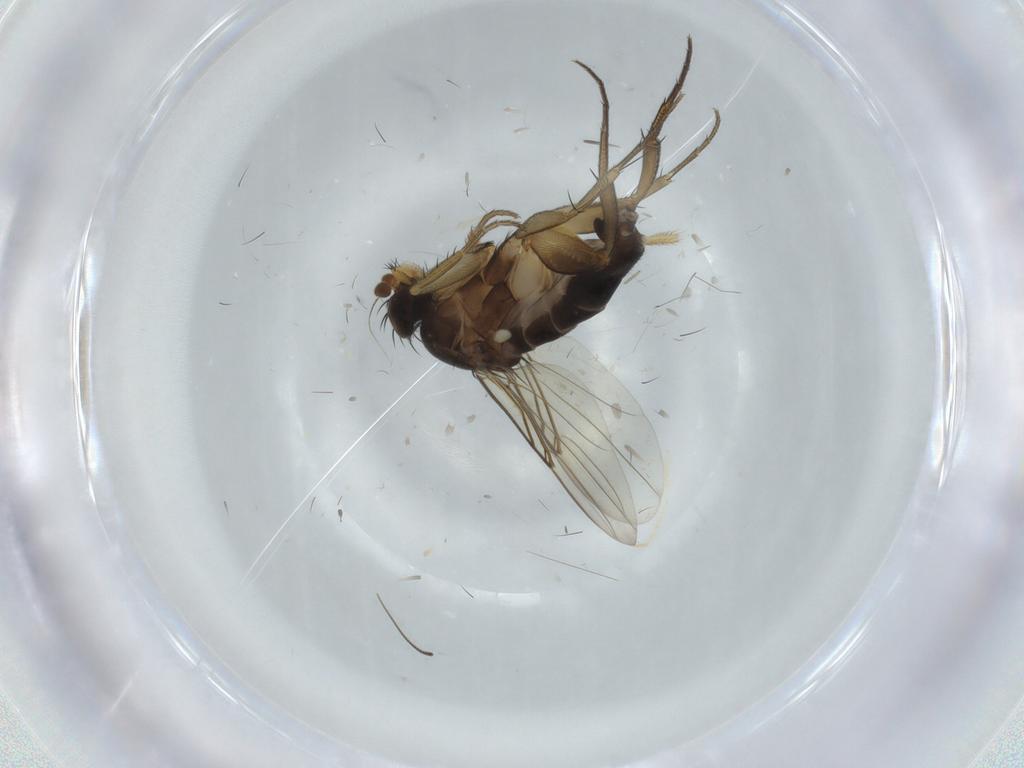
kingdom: Animalia
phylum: Arthropoda
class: Insecta
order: Diptera
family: Phoridae
